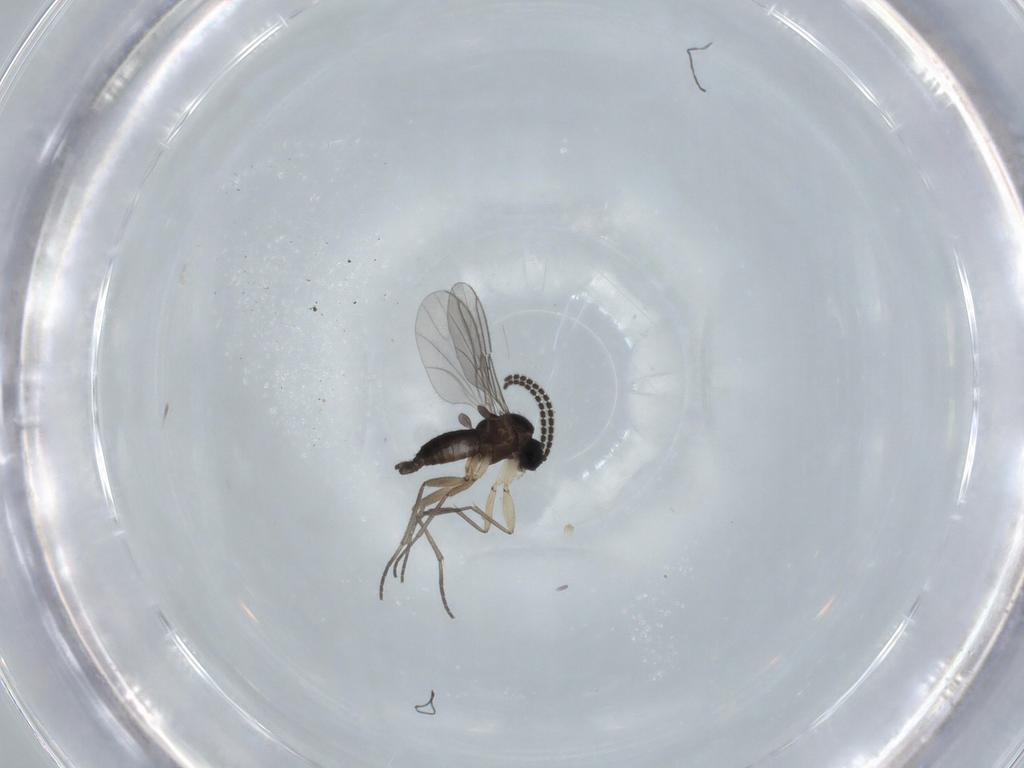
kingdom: Animalia
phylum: Arthropoda
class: Insecta
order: Diptera
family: Sciaridae
